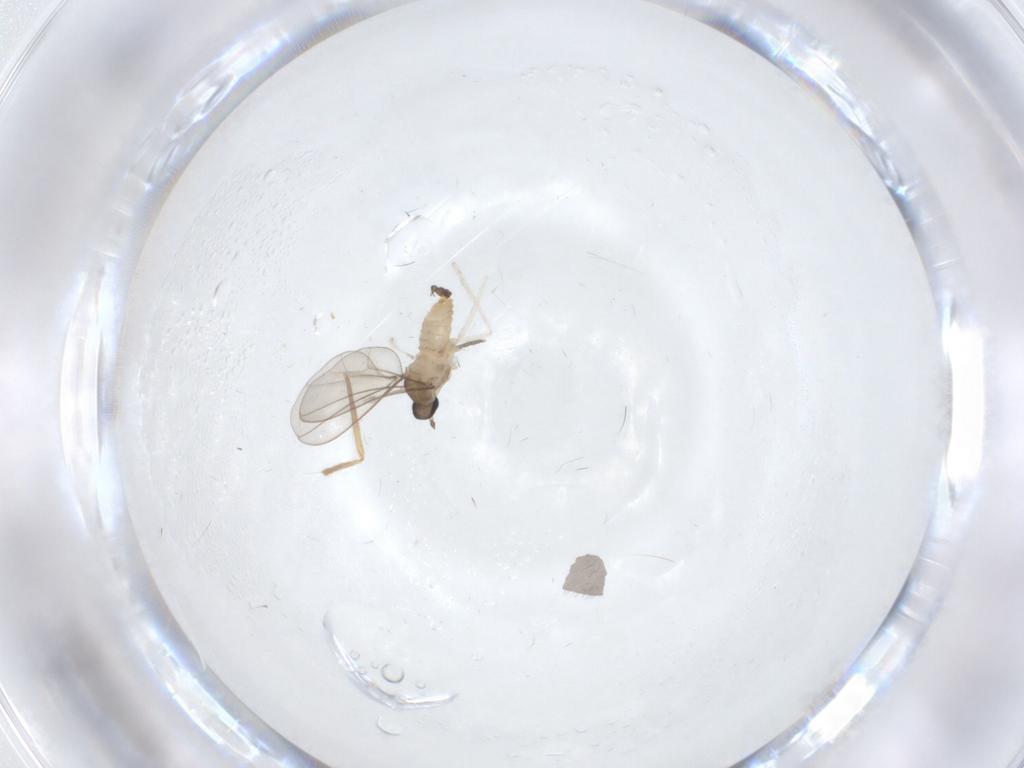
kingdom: Animalia
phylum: Arthropoda
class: Insecta
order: Diptera
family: Chironomidae
